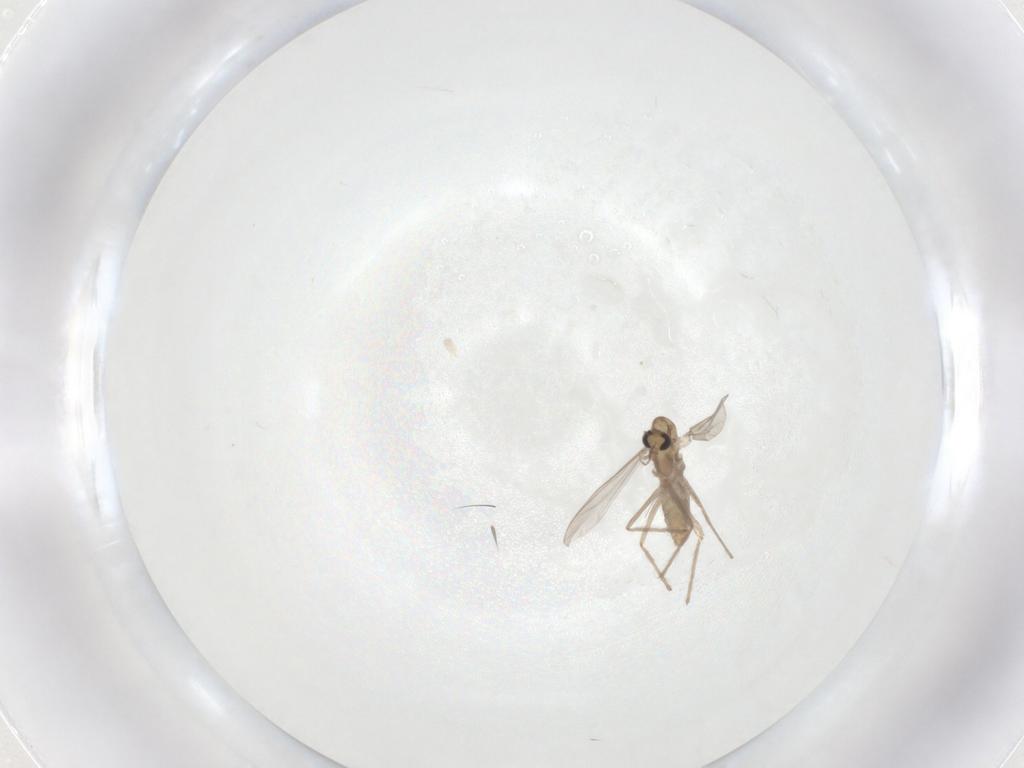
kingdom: Animalia
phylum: Arthropoda
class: Insecta
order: Diptera
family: Chironomidae
